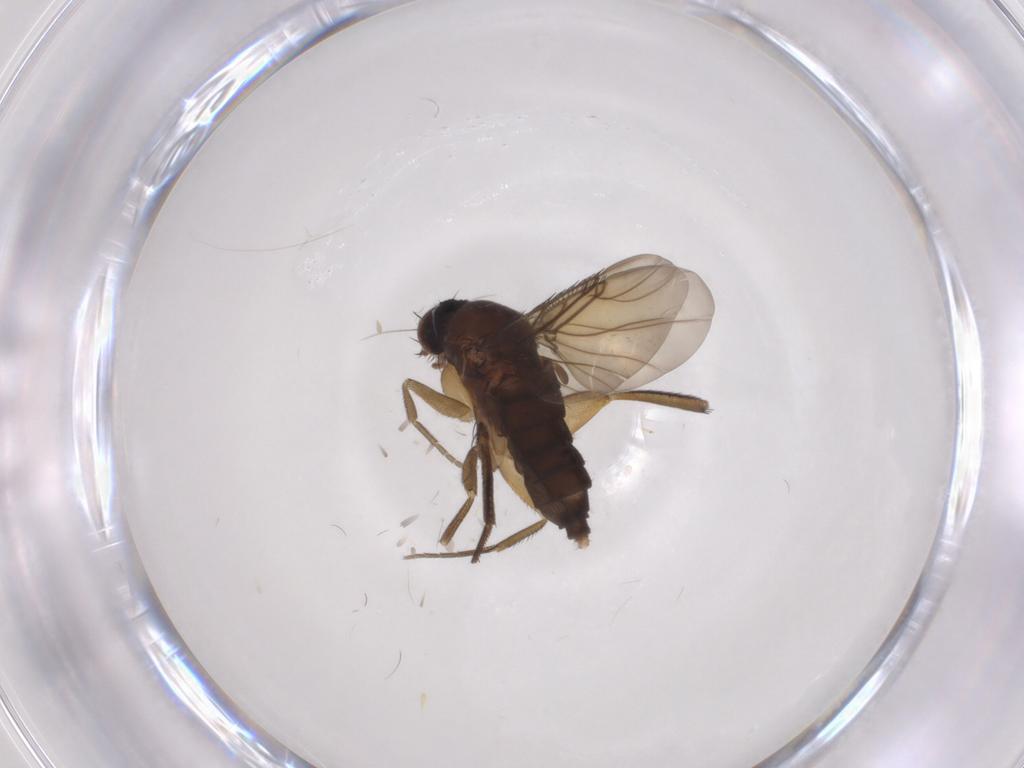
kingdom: Animalia
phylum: Arthropoda
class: Insecta
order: Diptera
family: Phoridae
